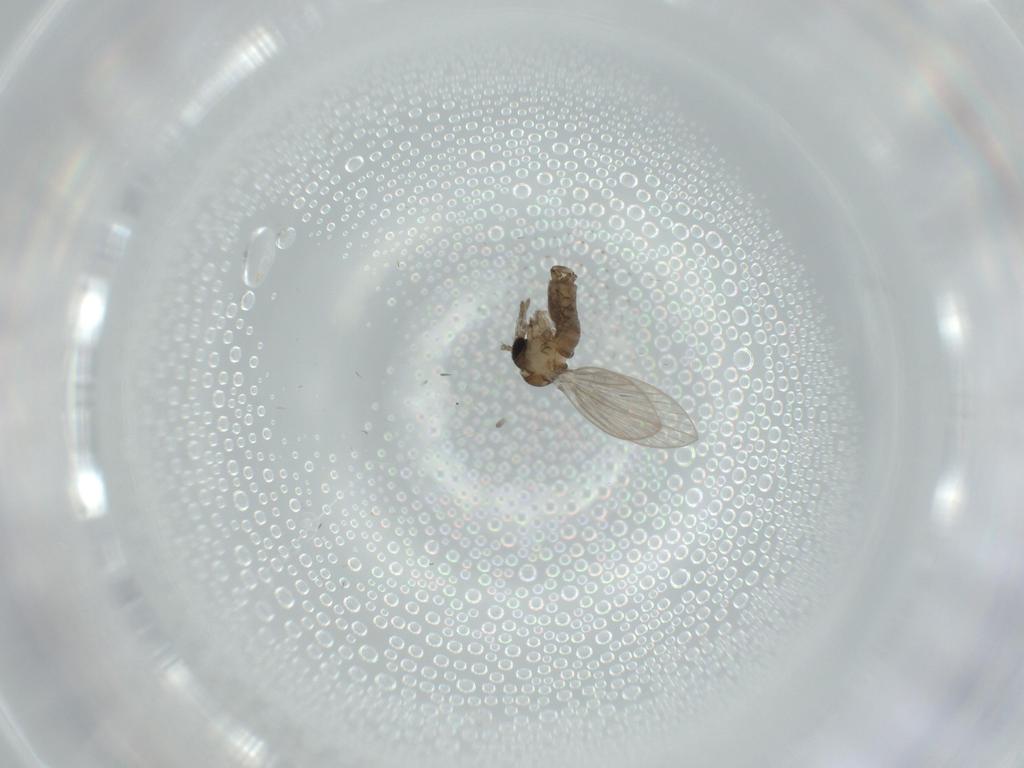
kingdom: Animalia
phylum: Arthropoda
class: Insecta
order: Diptera
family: Psychodidae
